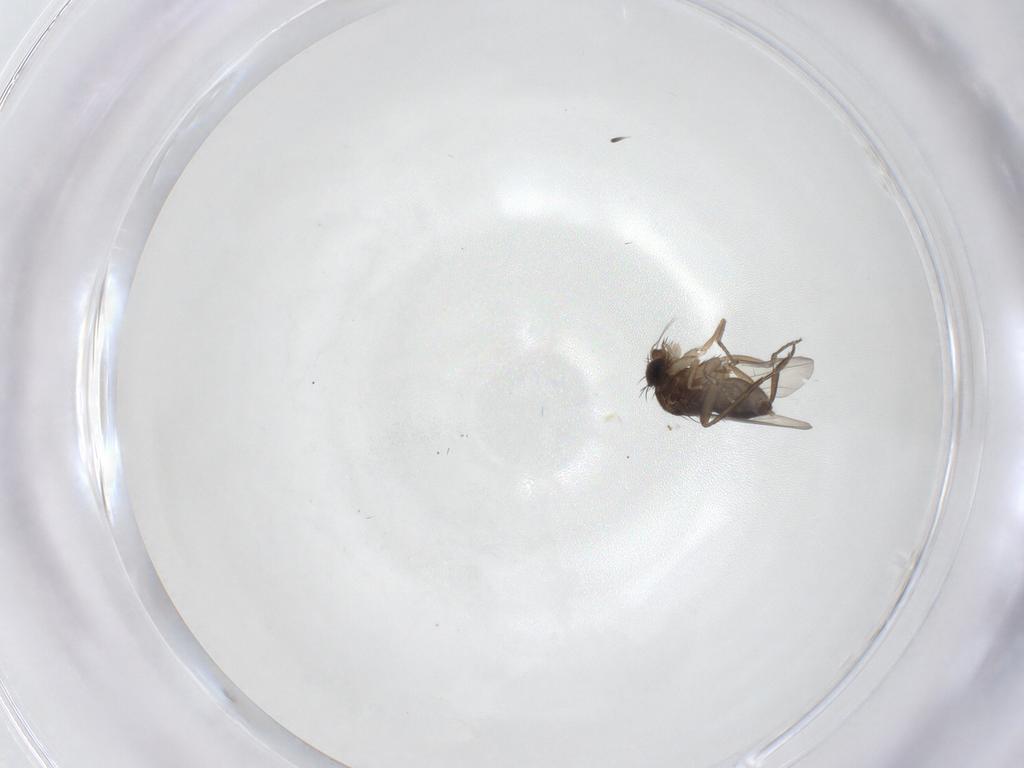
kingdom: Animalia
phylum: Arthropoda
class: Insecta
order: Diptera
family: Phoridae
